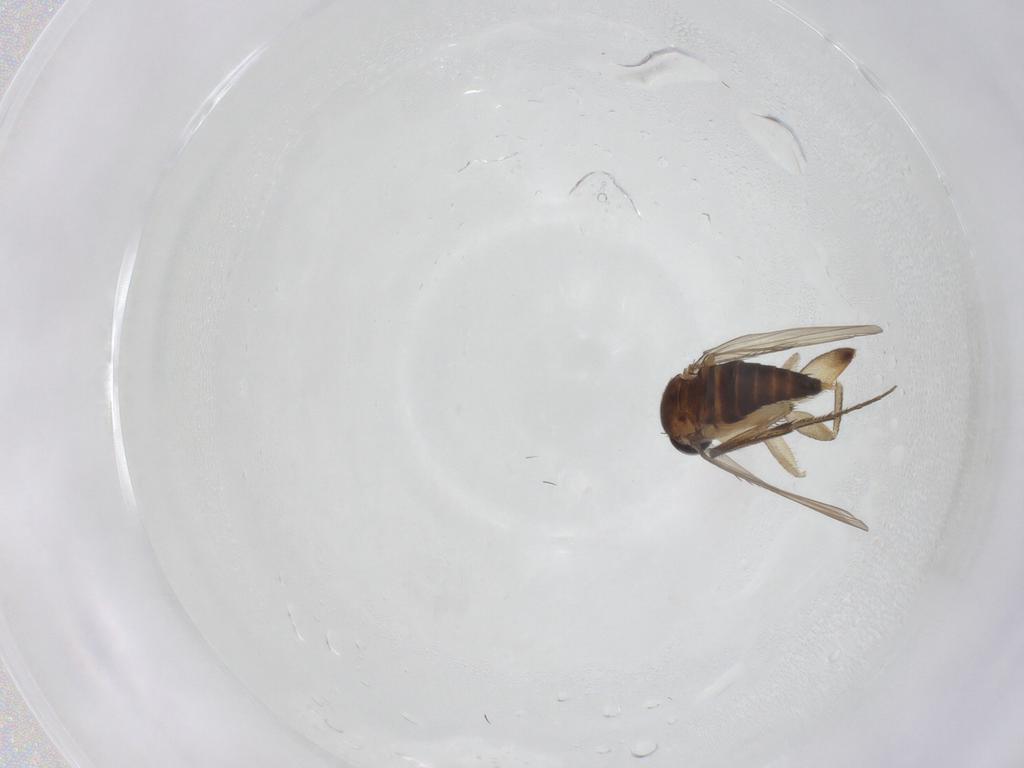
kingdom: Animalia
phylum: Arthropoda
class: Insecta
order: Diptera
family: Phoridae
